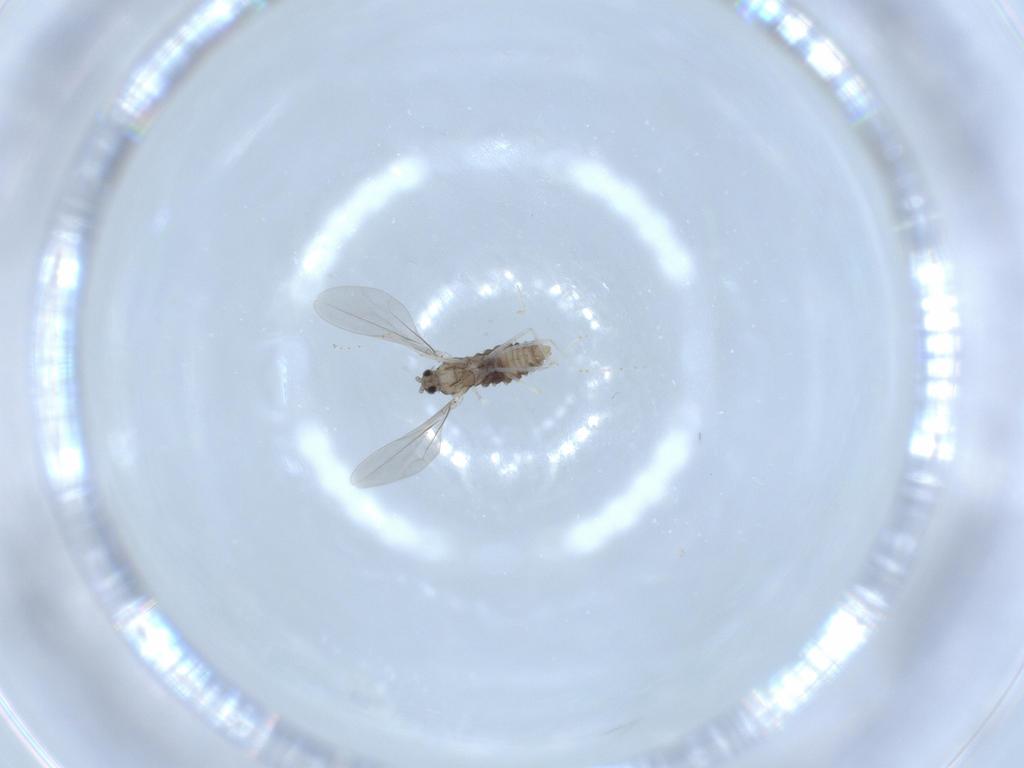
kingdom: Animalia
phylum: Arthropoda
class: Insecta
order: Diptera
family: Cecidomyiidae
